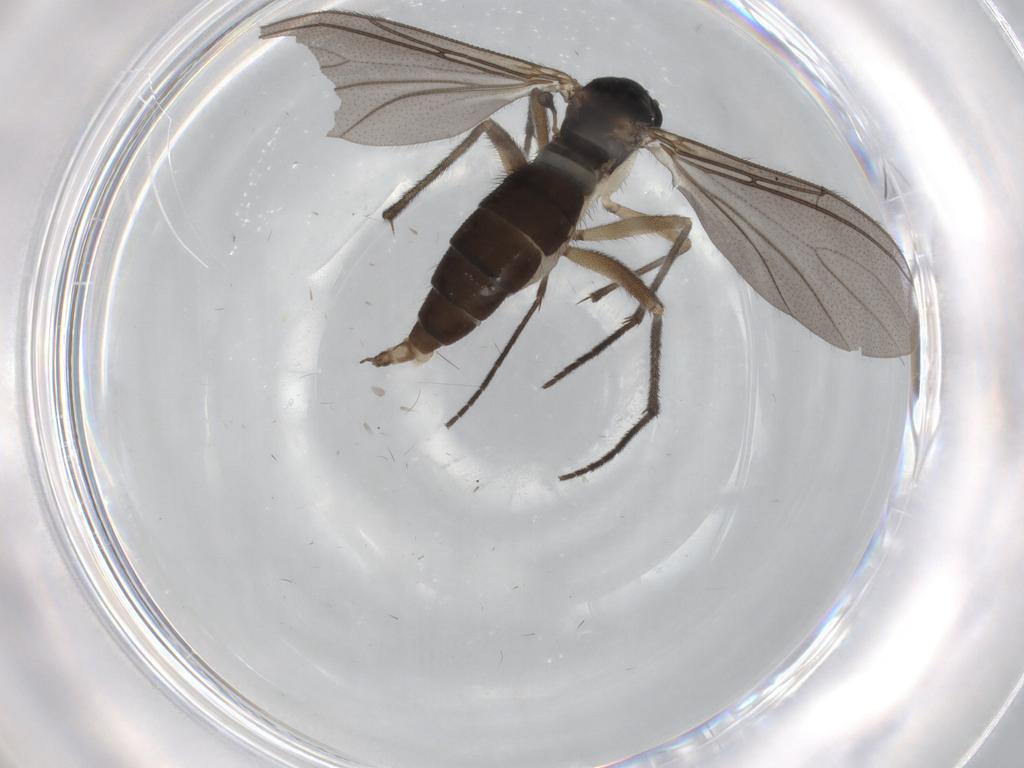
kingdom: Animalia
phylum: Arthropoda
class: Insecta
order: Diptera
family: Sciaridae
